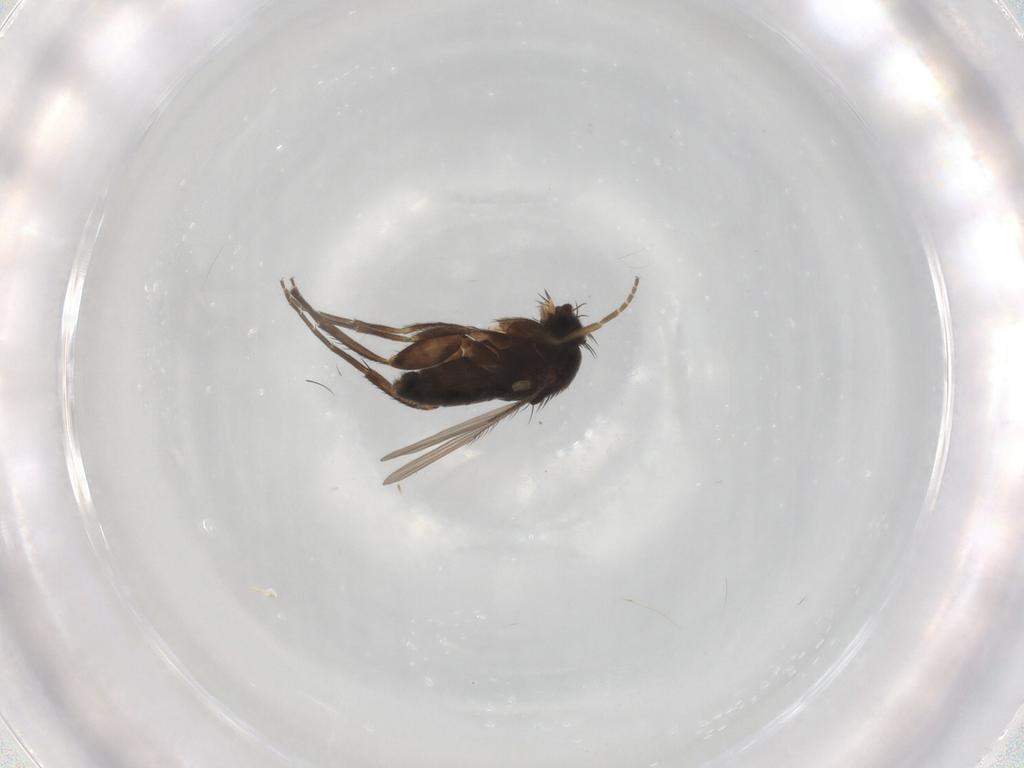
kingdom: Animalia
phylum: Arthropoda
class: Insecta
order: Diptera
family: Phoridae
